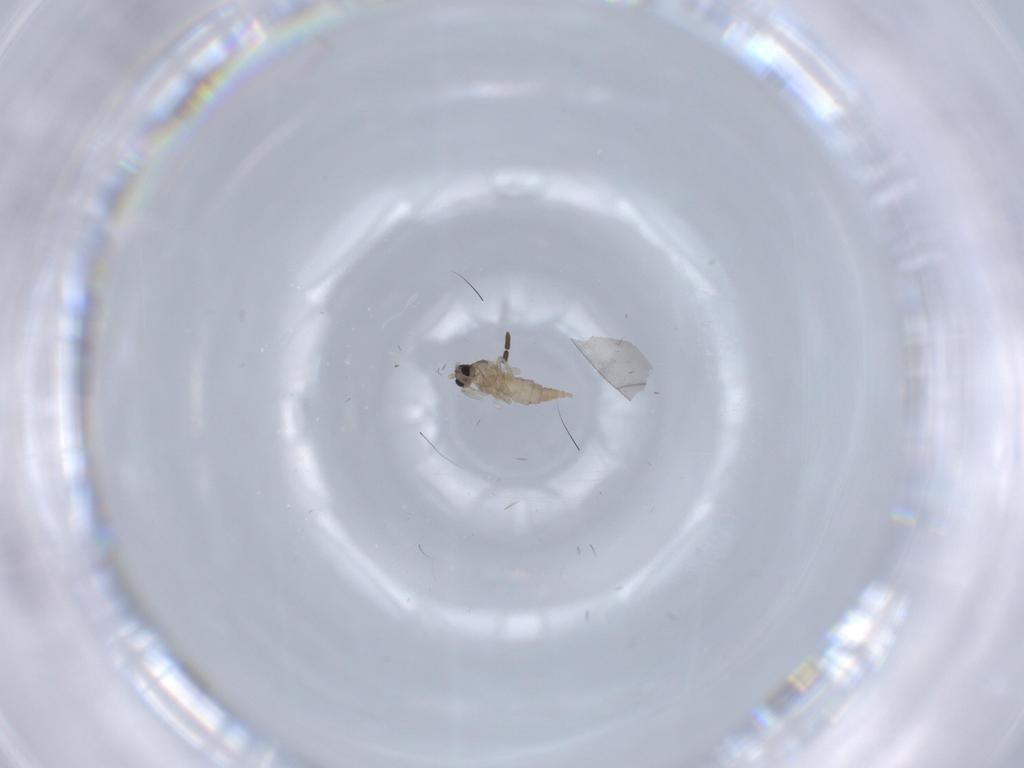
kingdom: Animalia
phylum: Arthropoda
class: Insecta
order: Diptera
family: Cecidomyiidae
